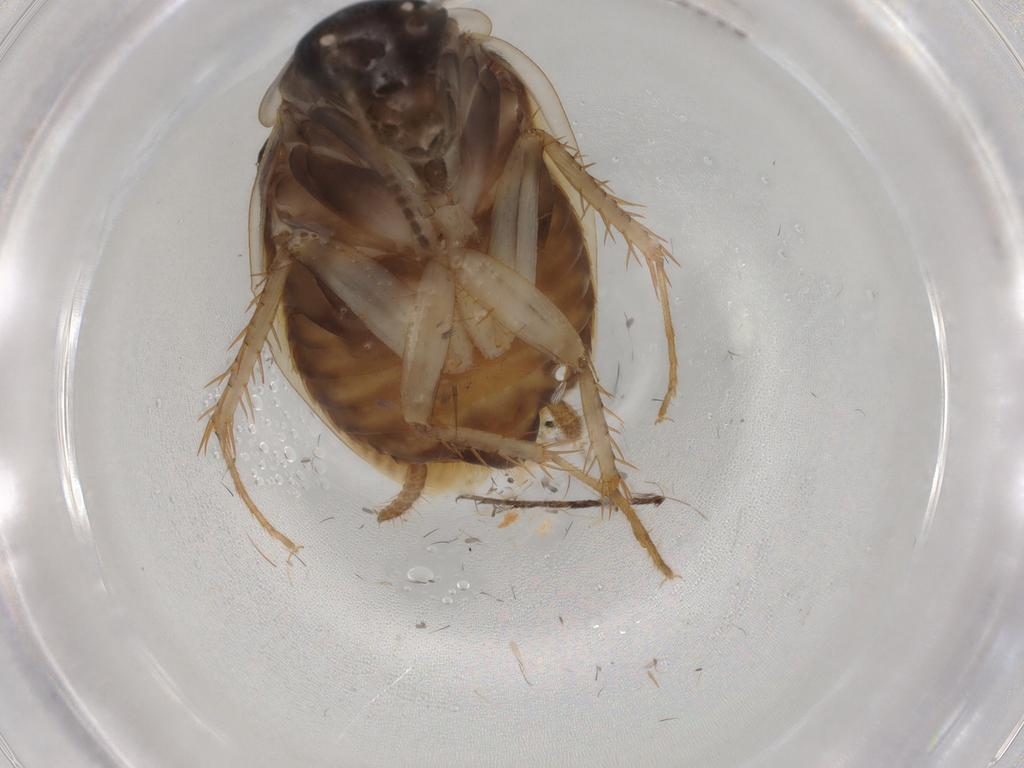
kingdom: Animalia
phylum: Arthropoda
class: Insecta
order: Blattodea
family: Ectobiidae
